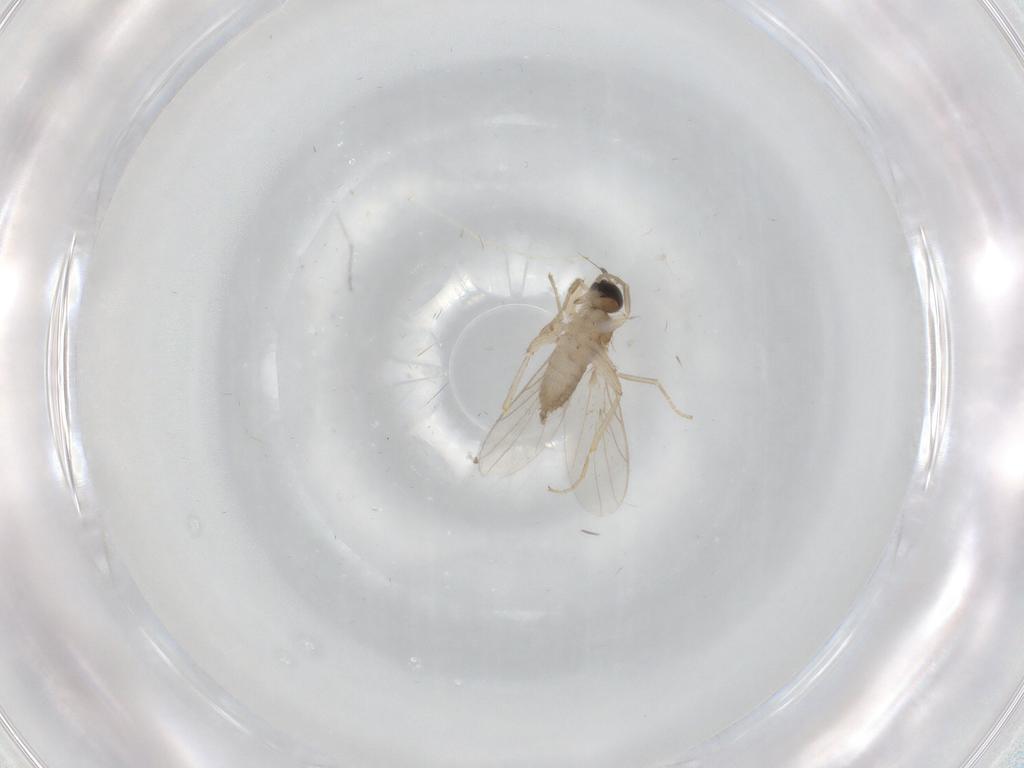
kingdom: Animalia
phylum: Arthropoda
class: Insecta
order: Diptera
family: Hybotidae
